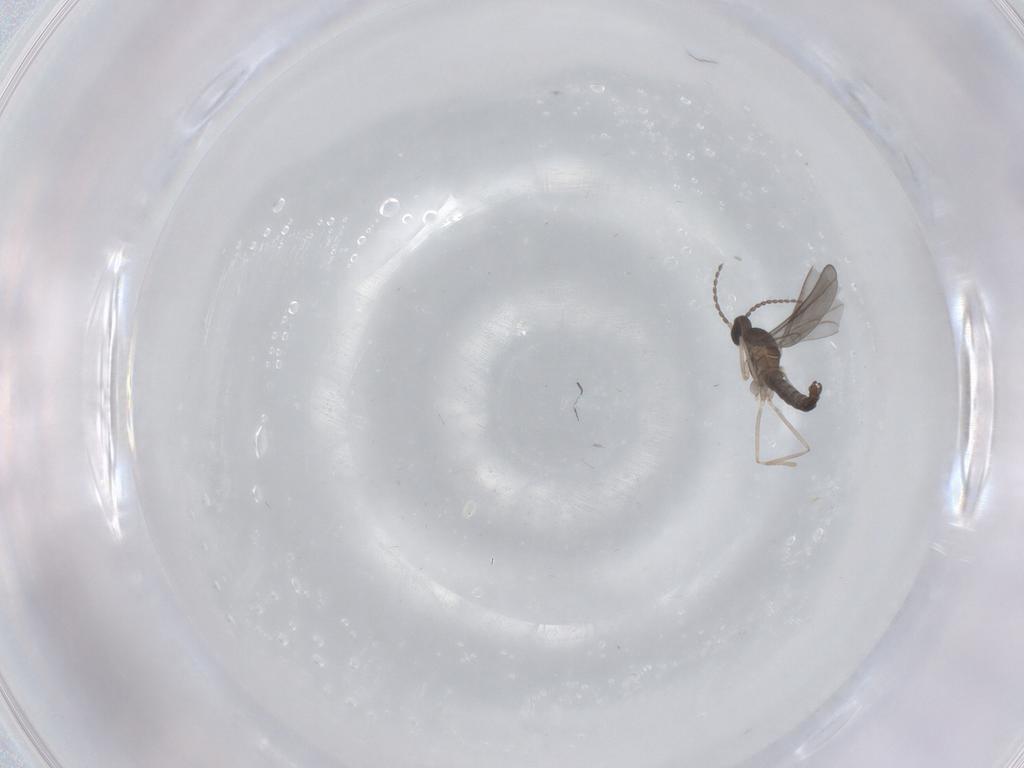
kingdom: Animalia
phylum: Arthropoda
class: Insecta
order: Diptera
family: Cecidomyiidae
